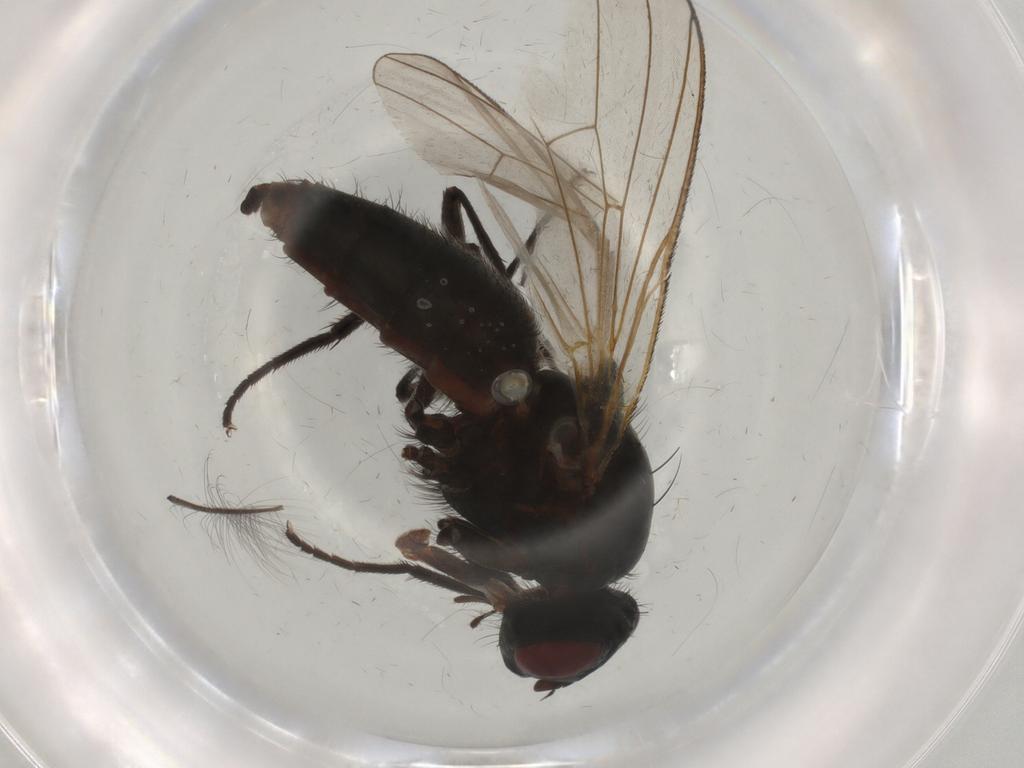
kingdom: Animalia
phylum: Arthropoda
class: Insecta
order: Diptera
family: Anthomyiidae
